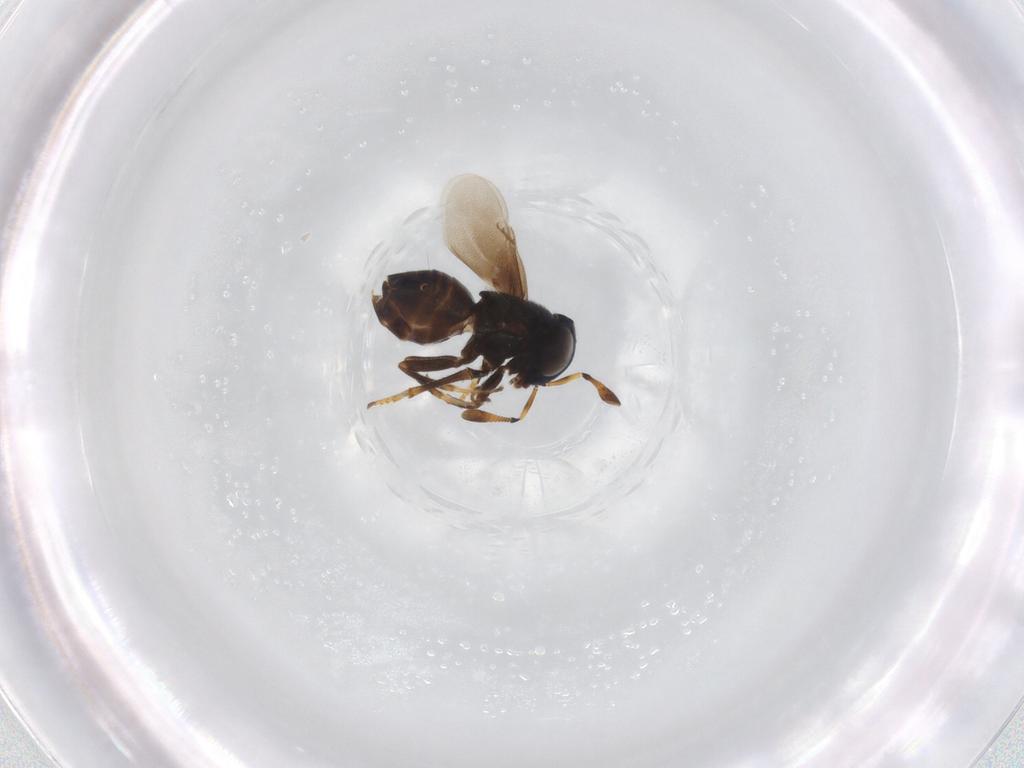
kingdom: Animalia
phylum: Arthropoda
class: Insecta
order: Hymenoptera
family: Encyrtidae
